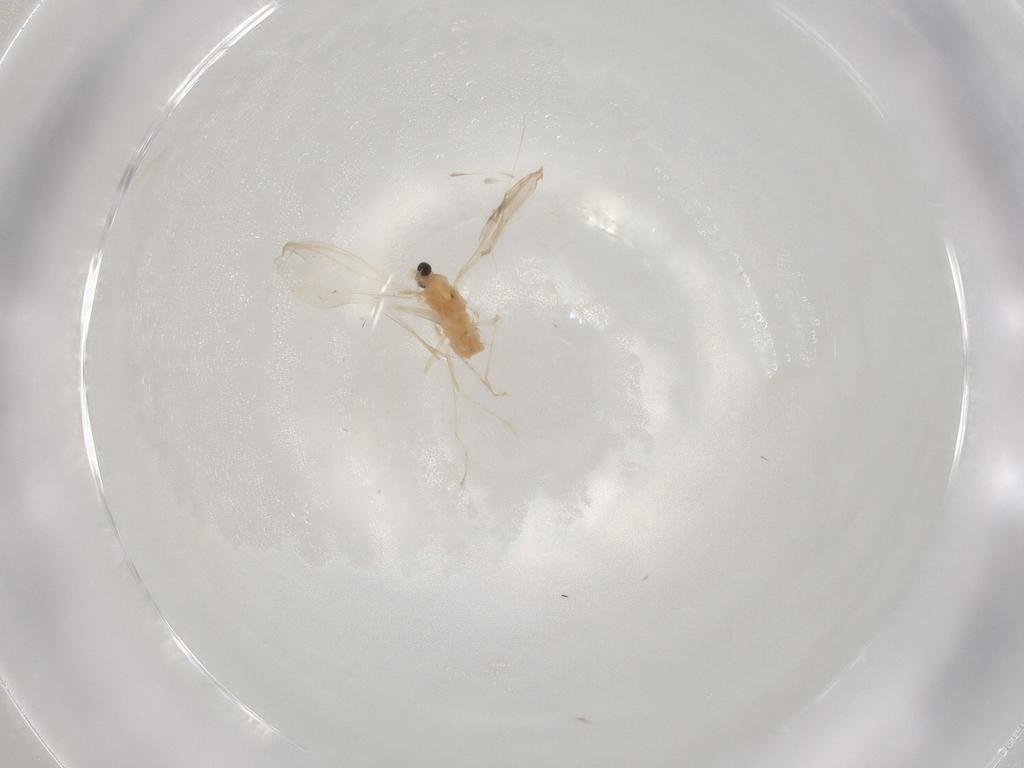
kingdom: Animalia
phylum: Arthropoda
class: Insecta
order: Diptera
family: Cecidomyiidae
